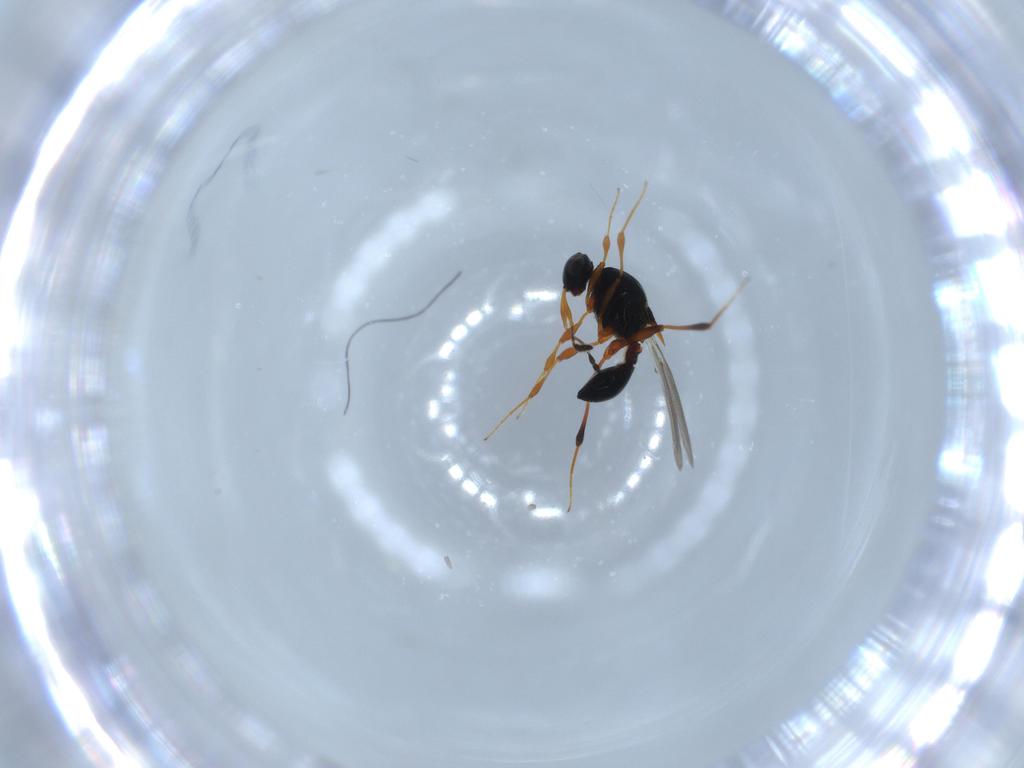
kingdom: Animalia
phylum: Arthropoda
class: Insecta
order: Hymenoptera
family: Platygastridae
